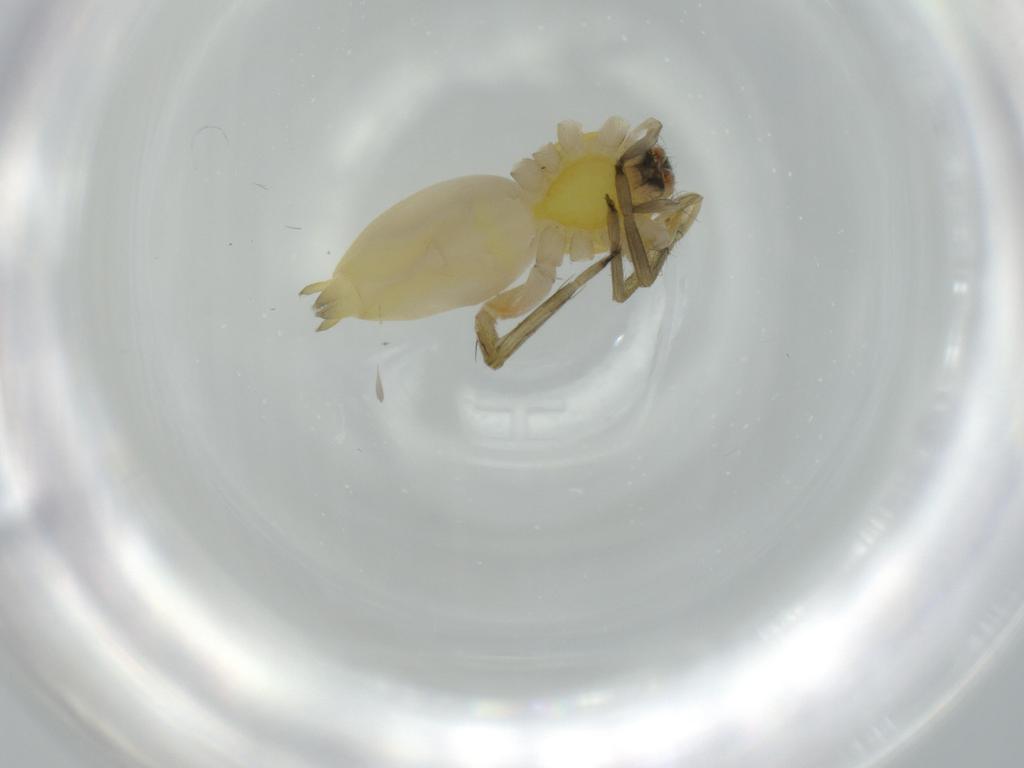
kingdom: Animalia
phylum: Arthropoda
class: Arachnida
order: Araneae
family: Anyphaenidae
